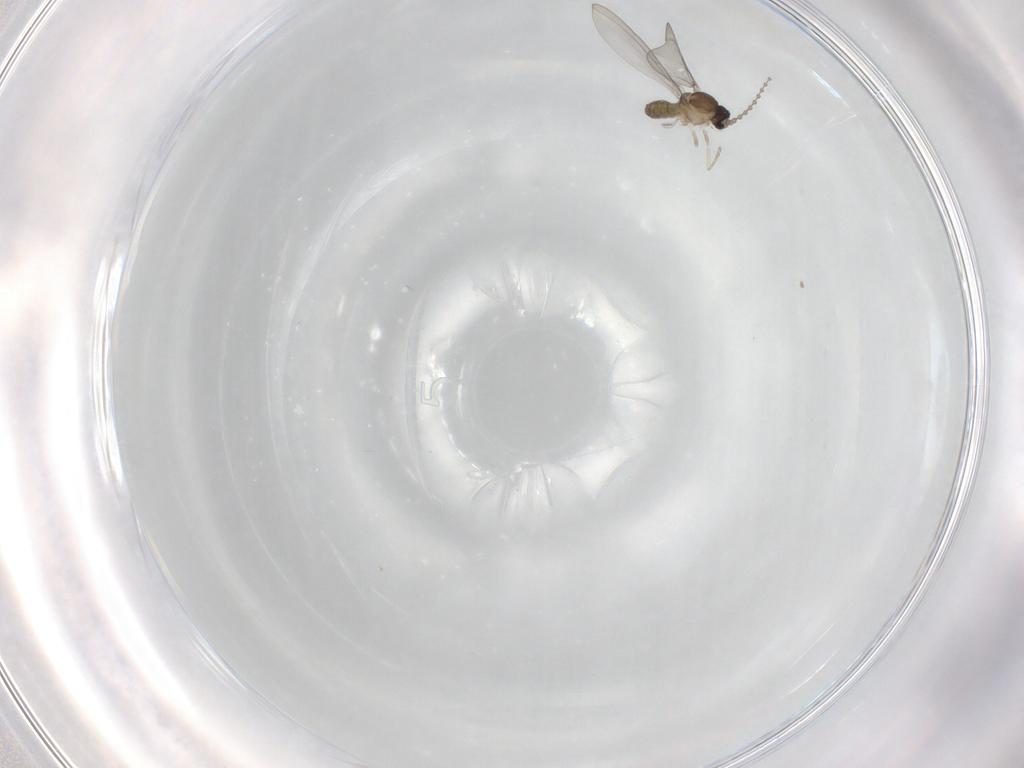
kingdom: Animalia
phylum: Arthropoda
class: Insecta
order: Diptera
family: Cecidomyiidae
